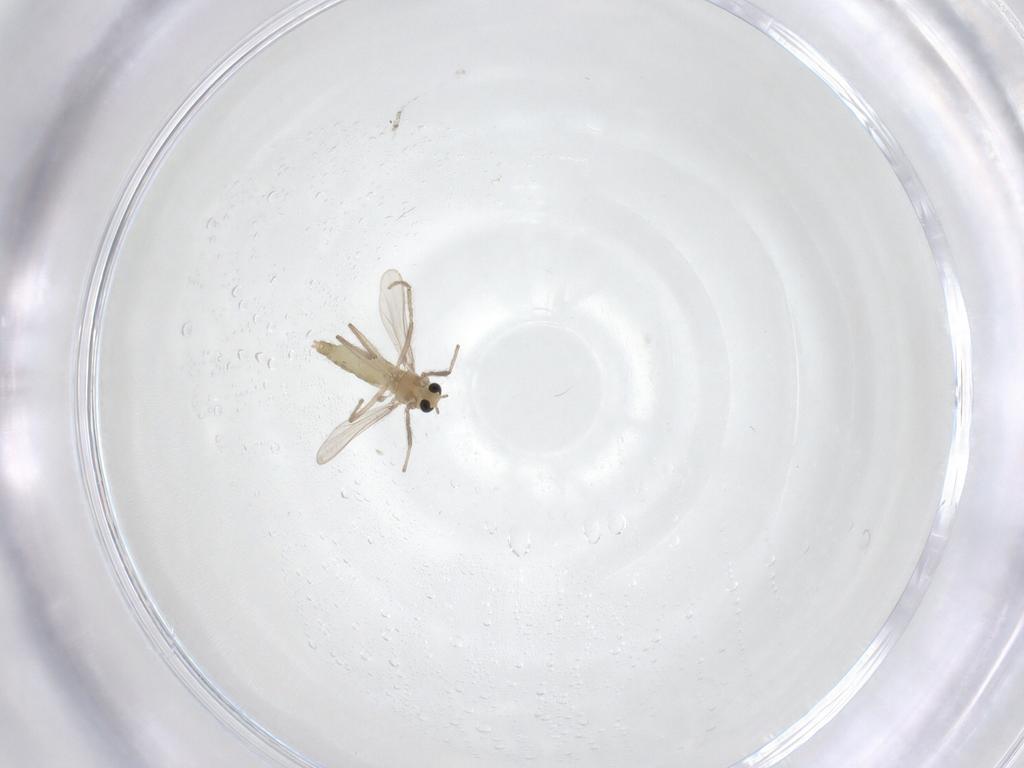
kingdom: Animalia
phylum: Arthropoda
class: Insecta
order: Diptera
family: Chironomidae
